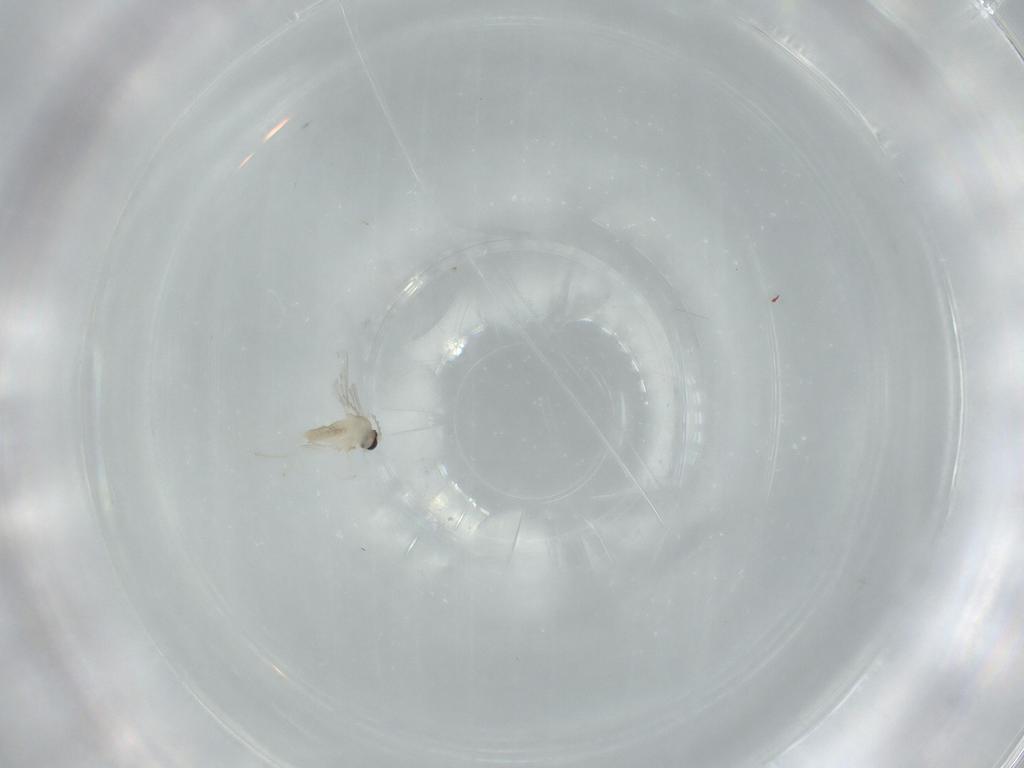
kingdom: Animalia
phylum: Arthropoda
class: Insecta
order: Diptera
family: Cecidomyiidae
